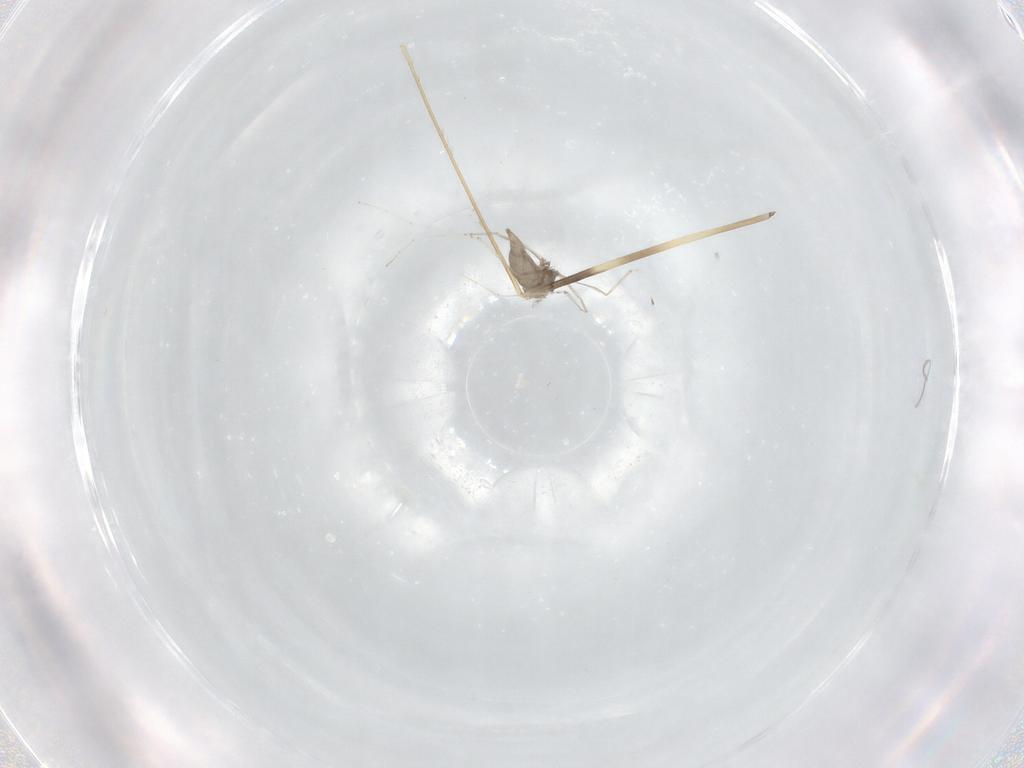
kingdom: Animalia
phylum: Arthropoda
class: Insecta
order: Diptera
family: Cecidomyiidae
